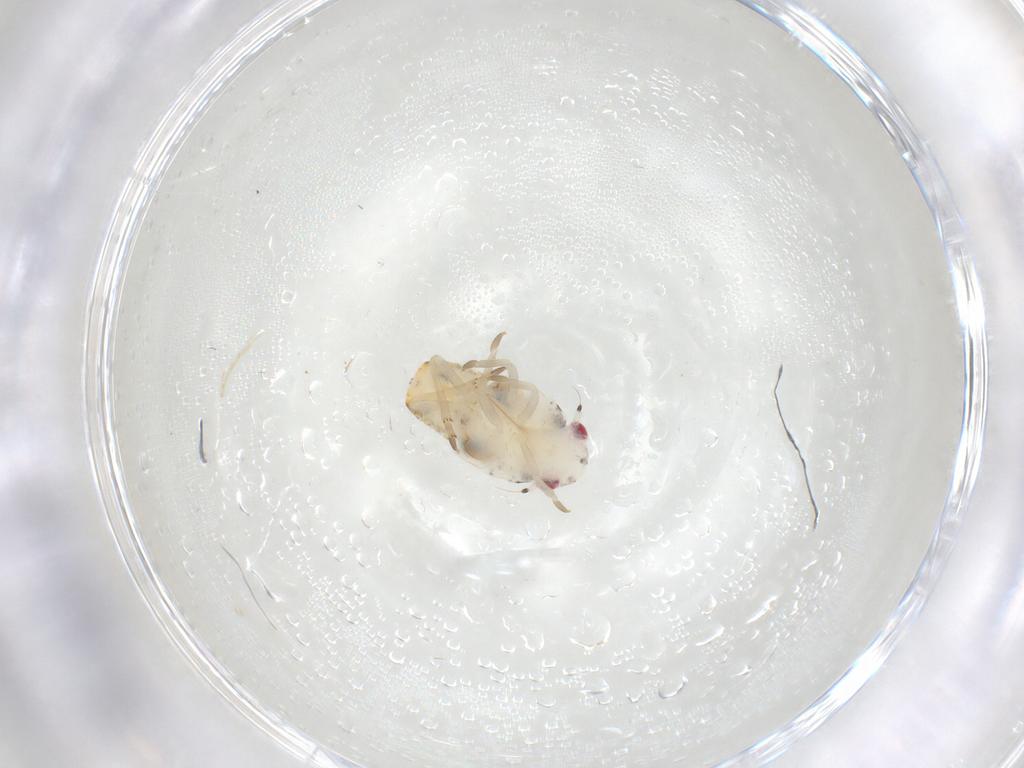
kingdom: Animalia
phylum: Arthropoda
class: Insecta
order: Hemiptera
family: Flatidae
